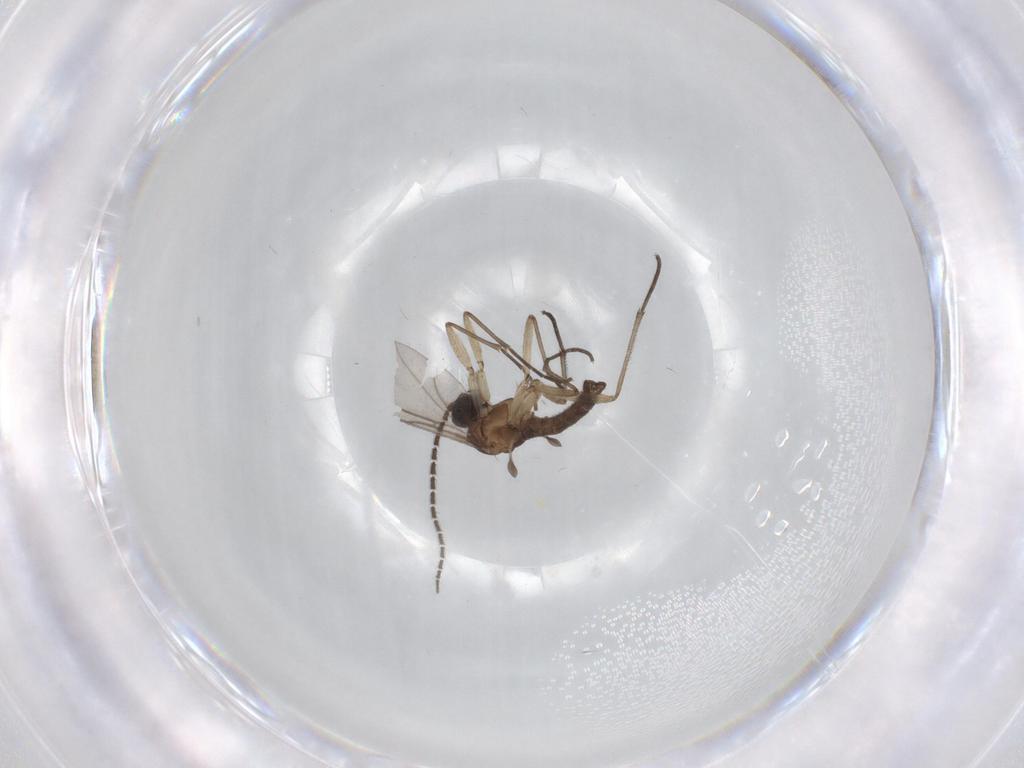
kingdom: Animalia
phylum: Arthropoda
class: Insecta
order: Diptera
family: Sciaridae
